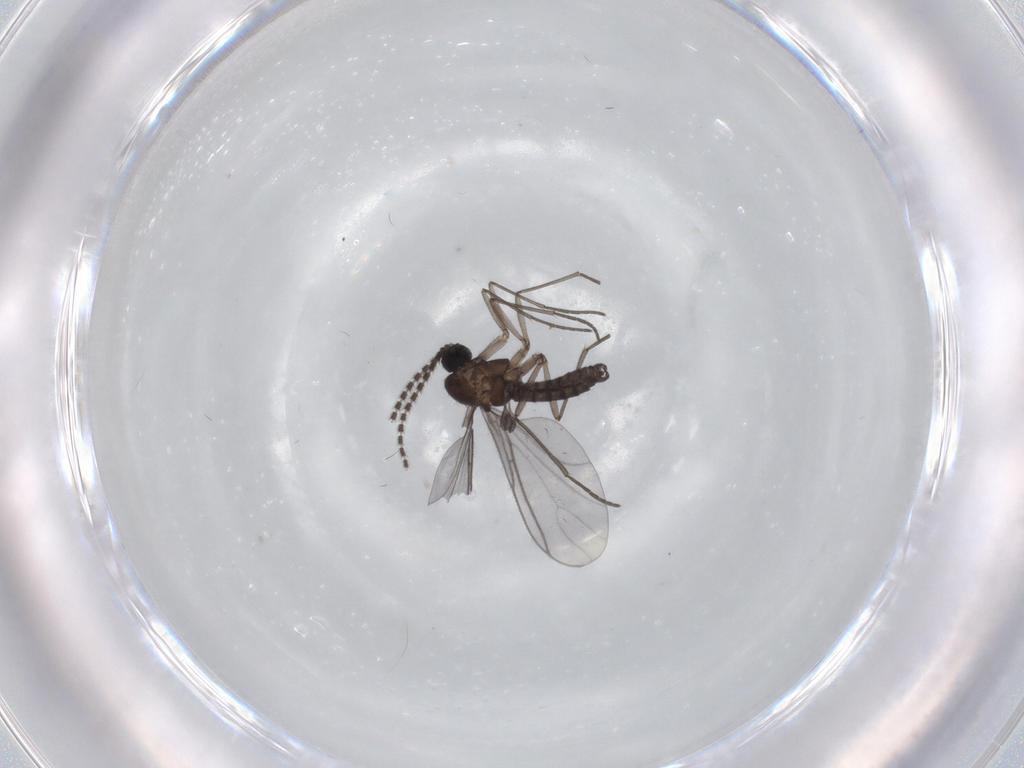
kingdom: Animalia
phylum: Arthropoda
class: Insecta
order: Diptera
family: Sciaridae
